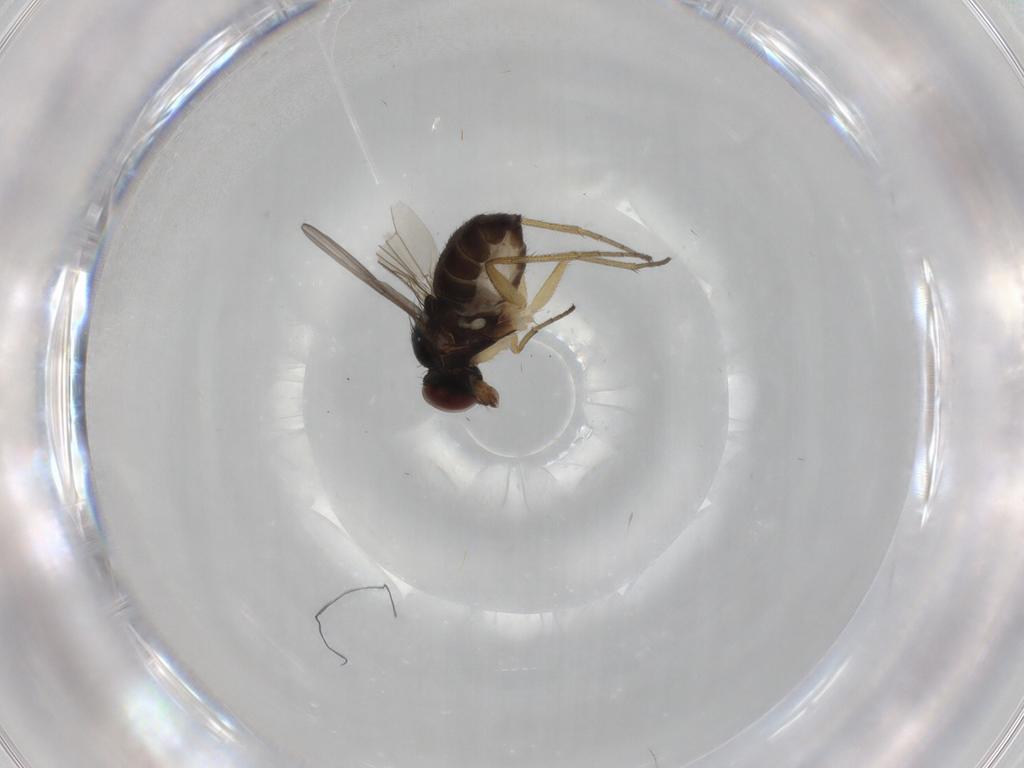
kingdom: Animalia
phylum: Arthropoda
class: Insecta
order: Diptera
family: Dolichopodidae
